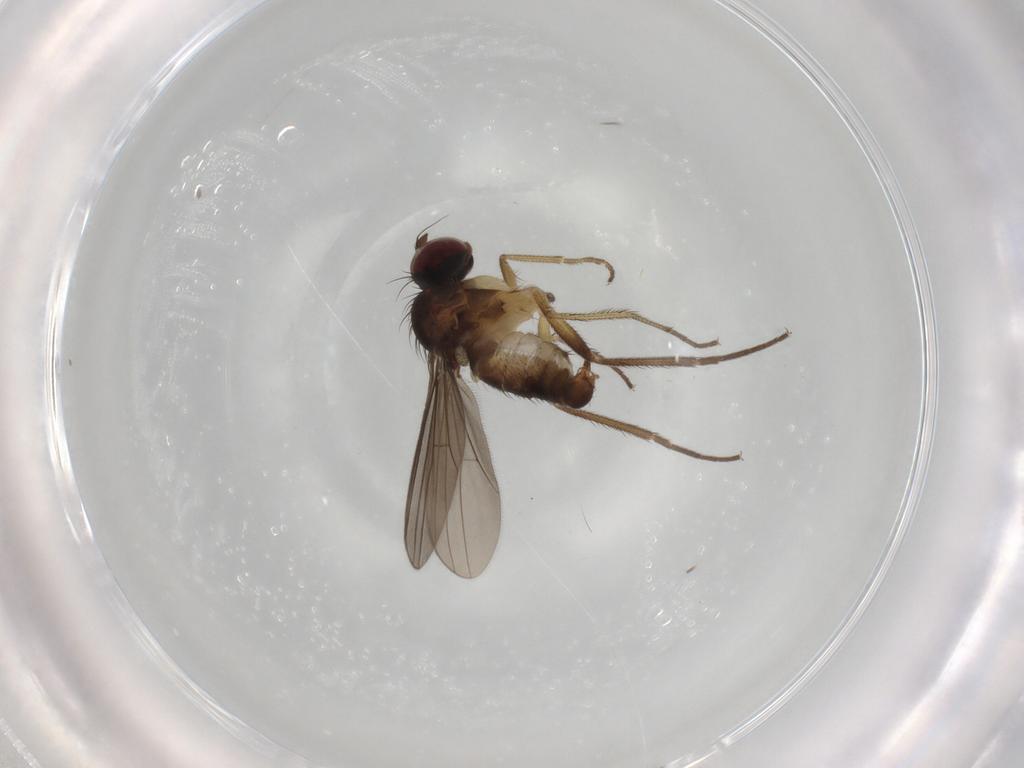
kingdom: Animalia
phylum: Arthropoda
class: Insecta
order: Diptera
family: Dolichopodidae
